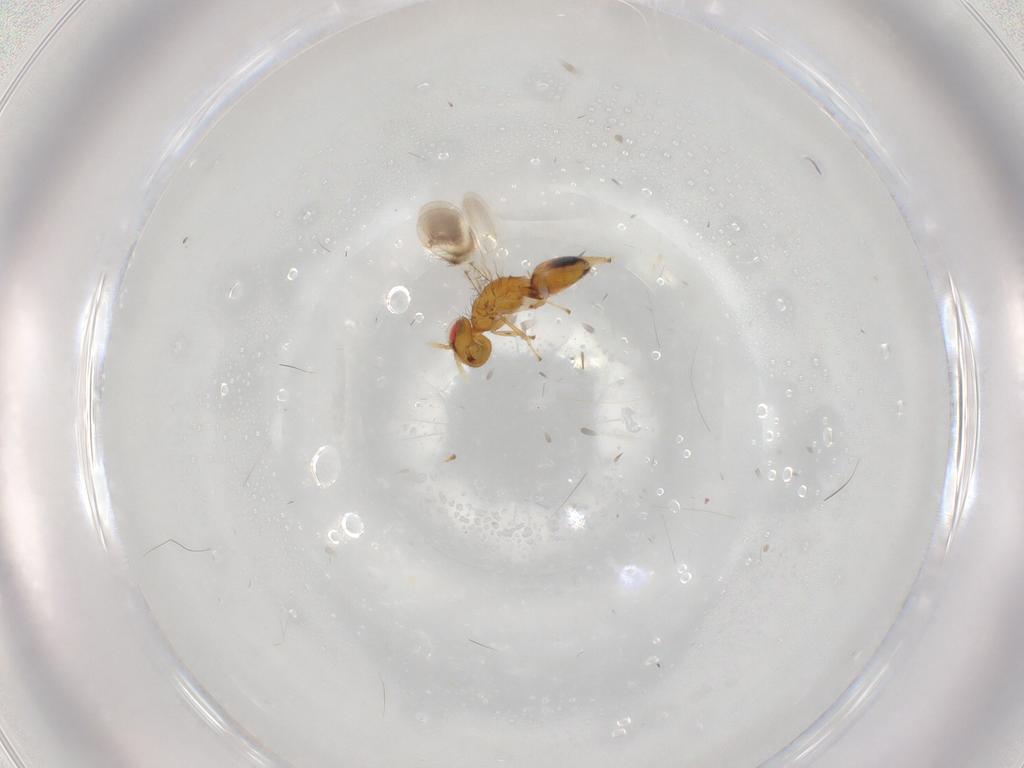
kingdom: Animalia
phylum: Arthropoda
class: Insecta
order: Hymenoptera
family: Eulophidae
